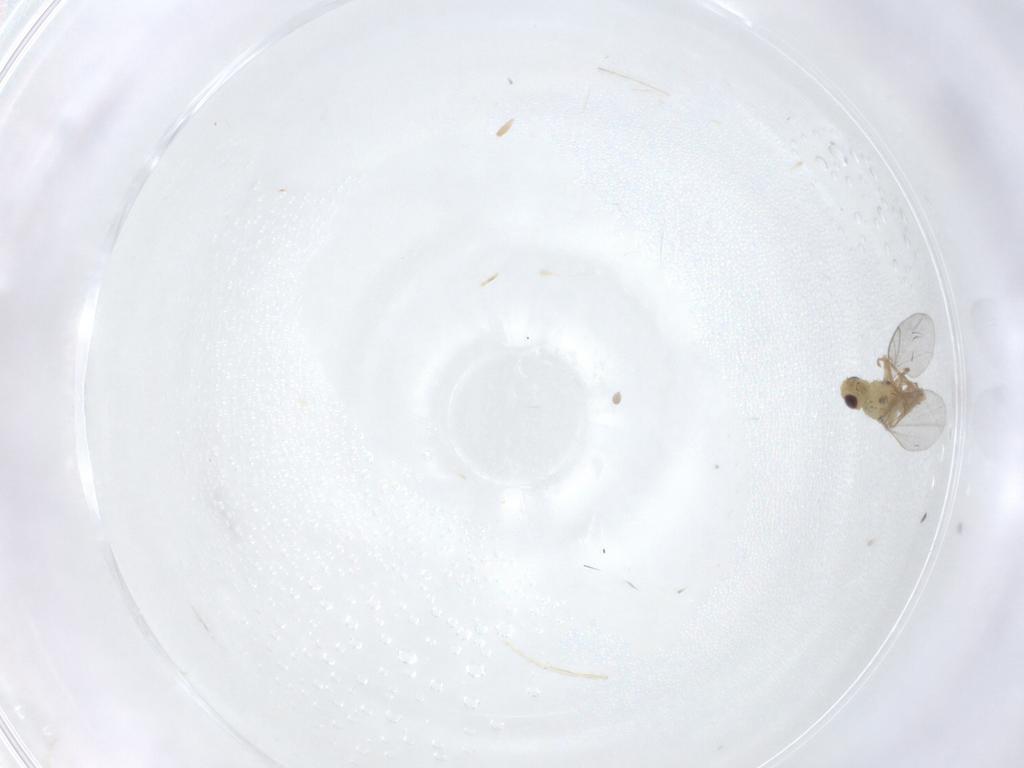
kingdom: Animalia
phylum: Arthropoda
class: Insecta
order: Diptera
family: Agromyzidae
